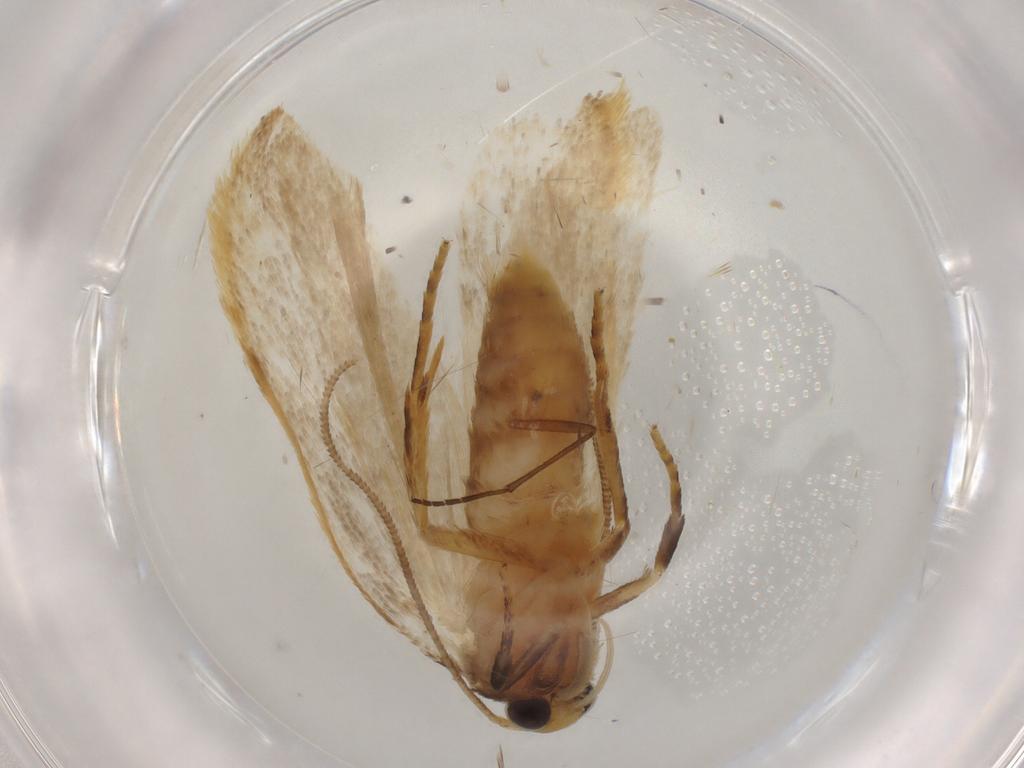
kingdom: Animalia
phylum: Arthropoda
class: Insecta
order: Lepidoptera
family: Depressariidae
